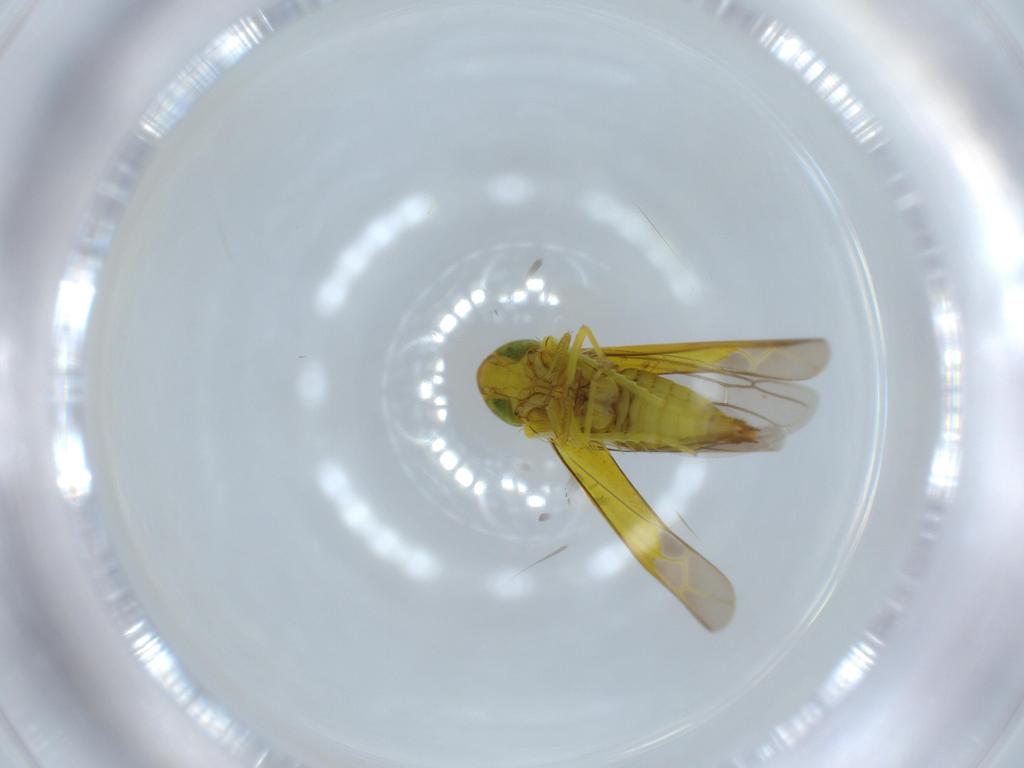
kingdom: Animalia
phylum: Arthropoda
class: Insecta
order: Hemiptera
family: Cicadellidae
